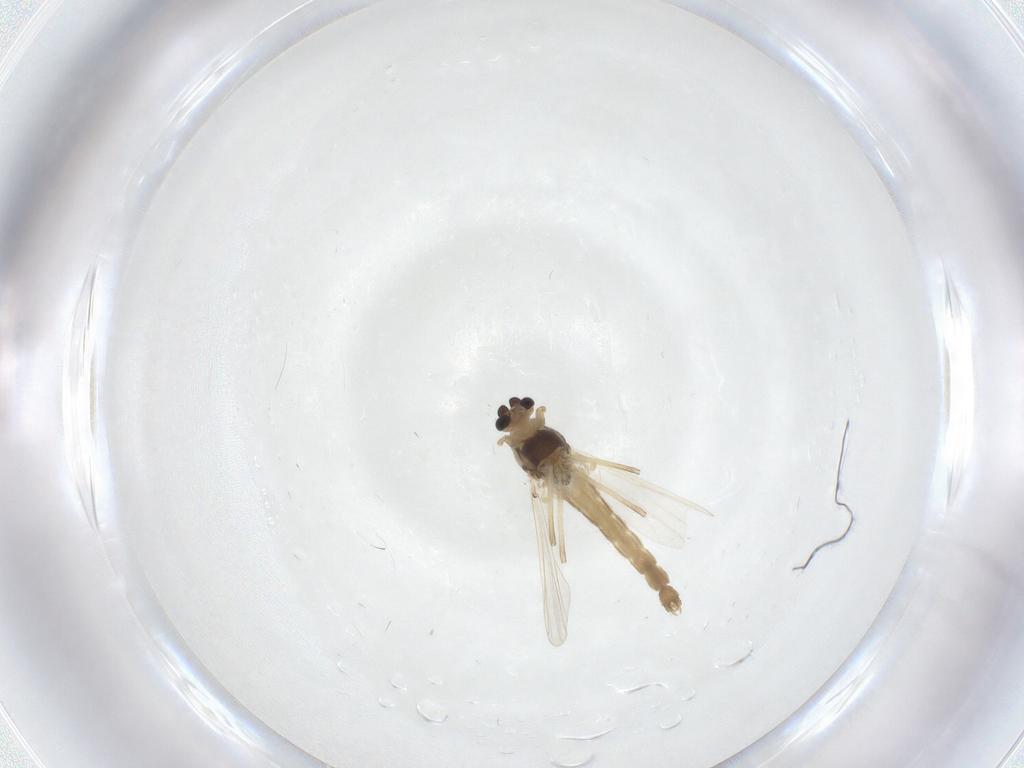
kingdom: Animalia
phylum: Arthropoda
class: Insecta
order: Diptera
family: Chironomidae
